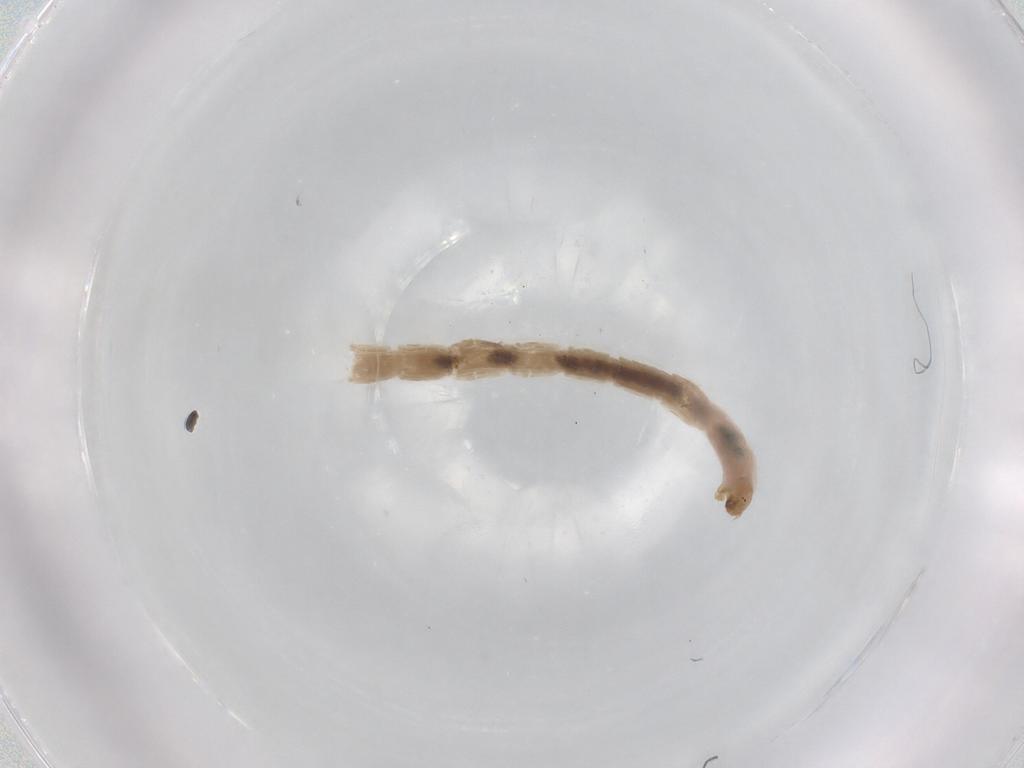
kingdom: Animalia
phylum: Arthropoda
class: Insecta
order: Diptera
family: Chironomidae
